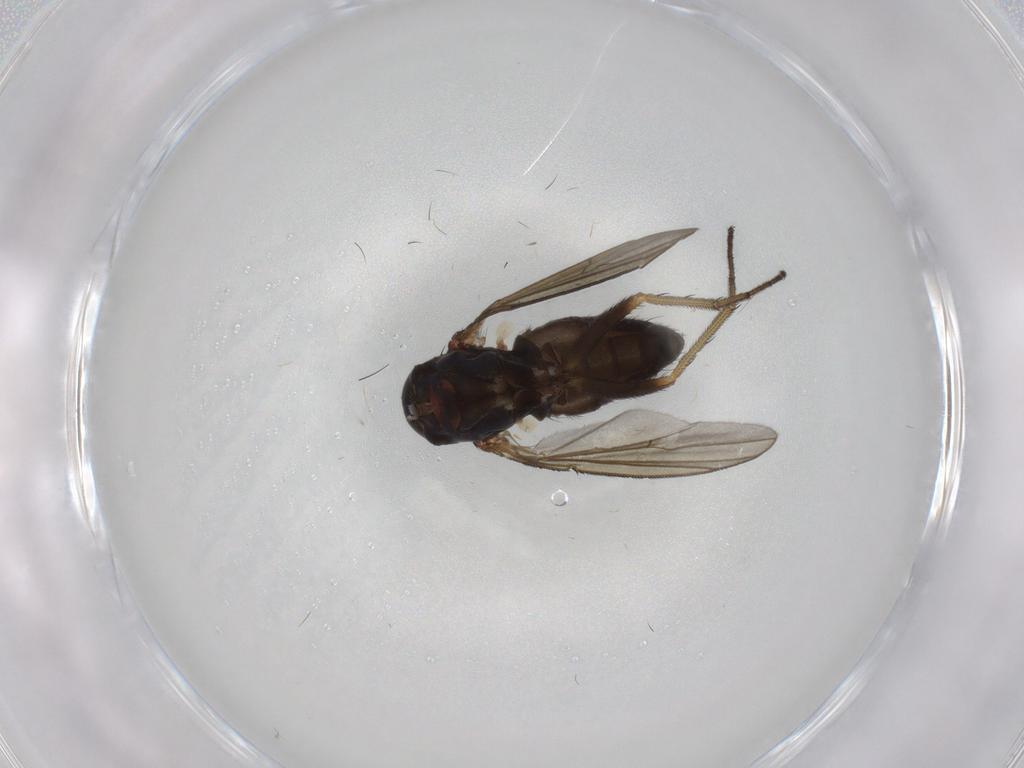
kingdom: Animalia
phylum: Arthropoda
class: Insecta
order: Diptera
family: Dolichopodidae
